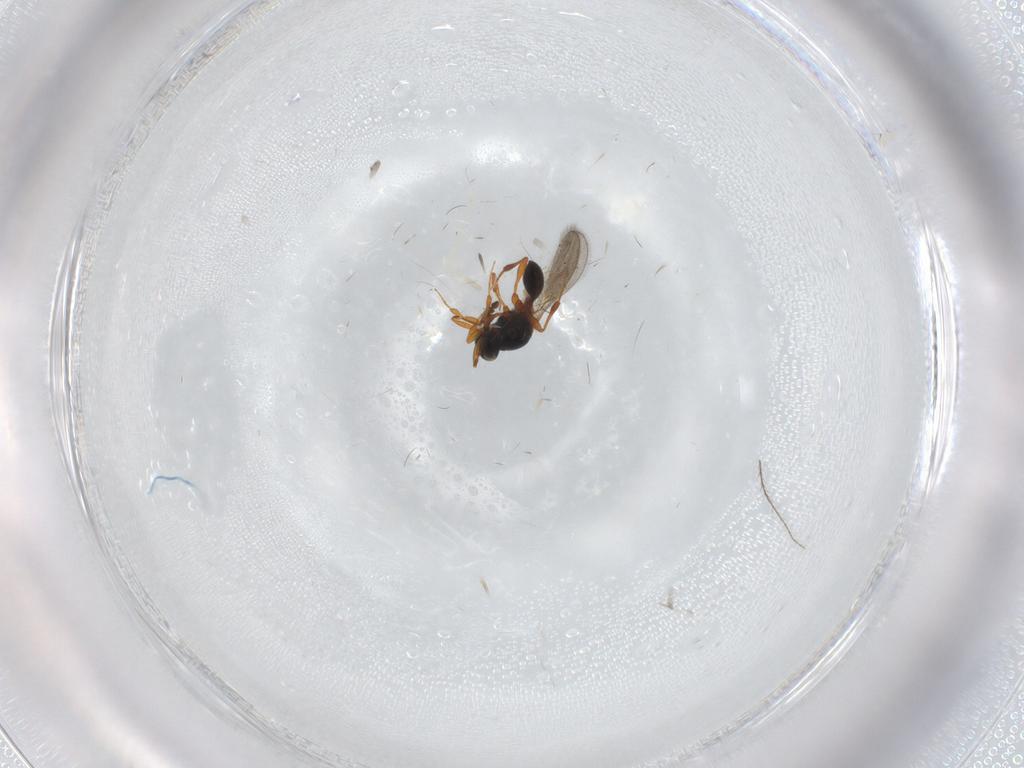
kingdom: Animalia
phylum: Arthropoda
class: Insecta
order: Hymenoptera
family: Platygastridae
